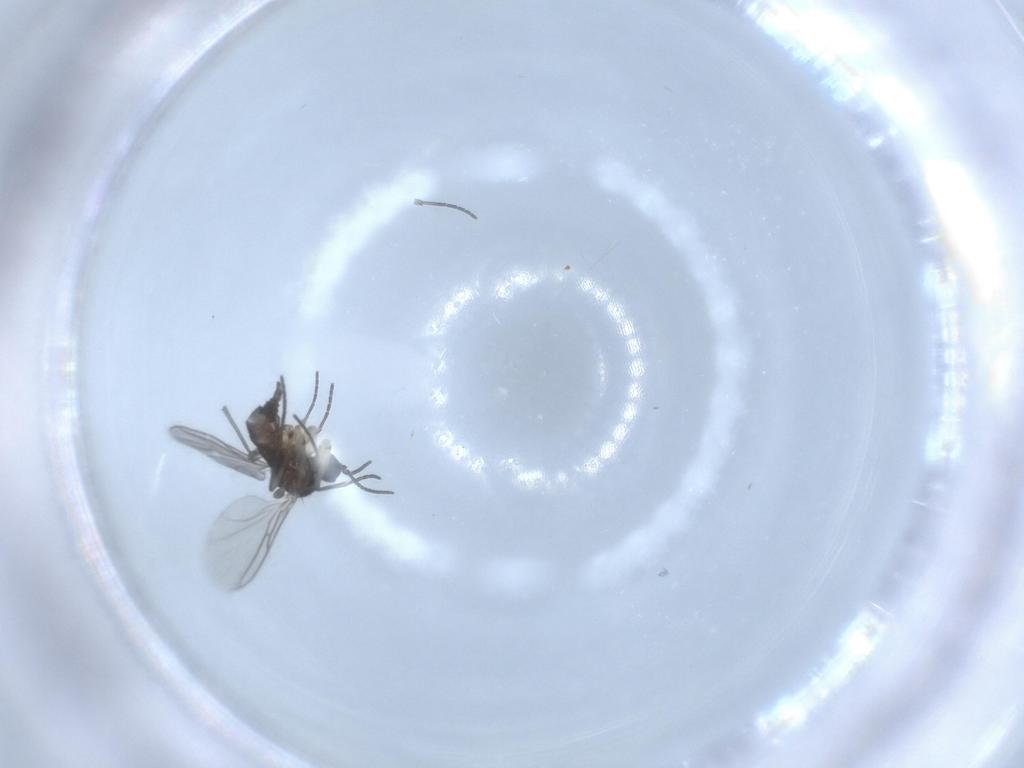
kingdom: Animalia
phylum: Arthropoda
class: Insecta
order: Diptera
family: Sciaridae
